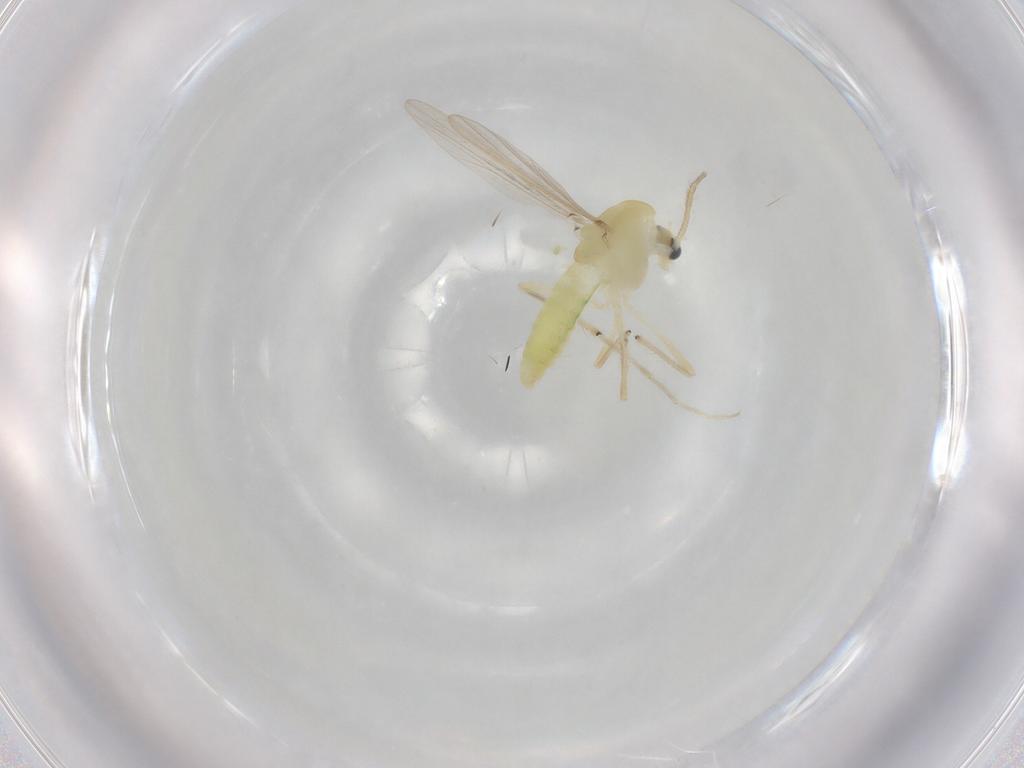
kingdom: Animalia
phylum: Arthropoda
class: Insecta
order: Diptera
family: Chironomidae
